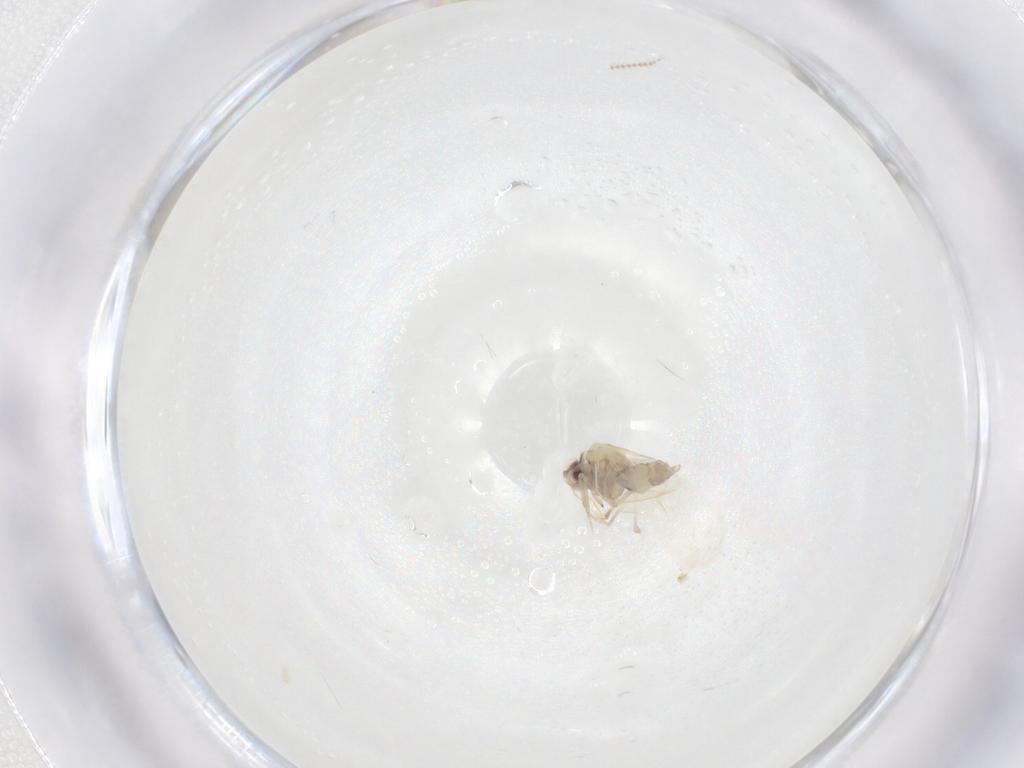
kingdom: Animalia
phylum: Arthropoda
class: Insecta
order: Hemiptera
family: Aleyrodidae
